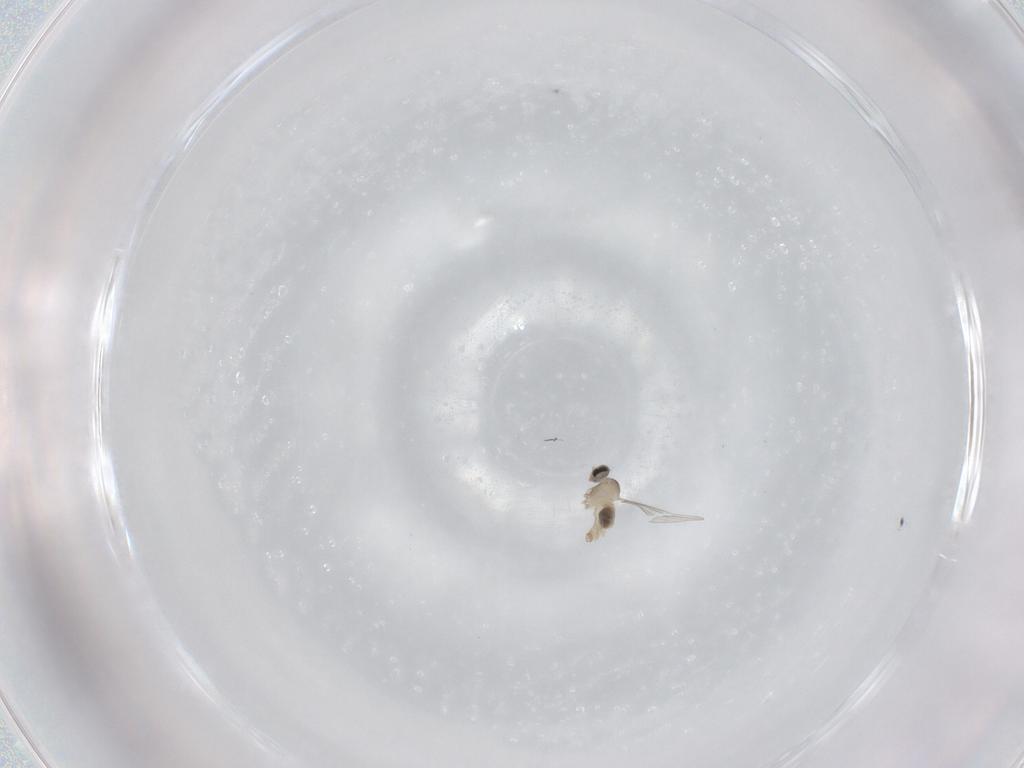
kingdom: Animalia
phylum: Arthropoda
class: Insecta
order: Diptera
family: Cecidomyiidae
